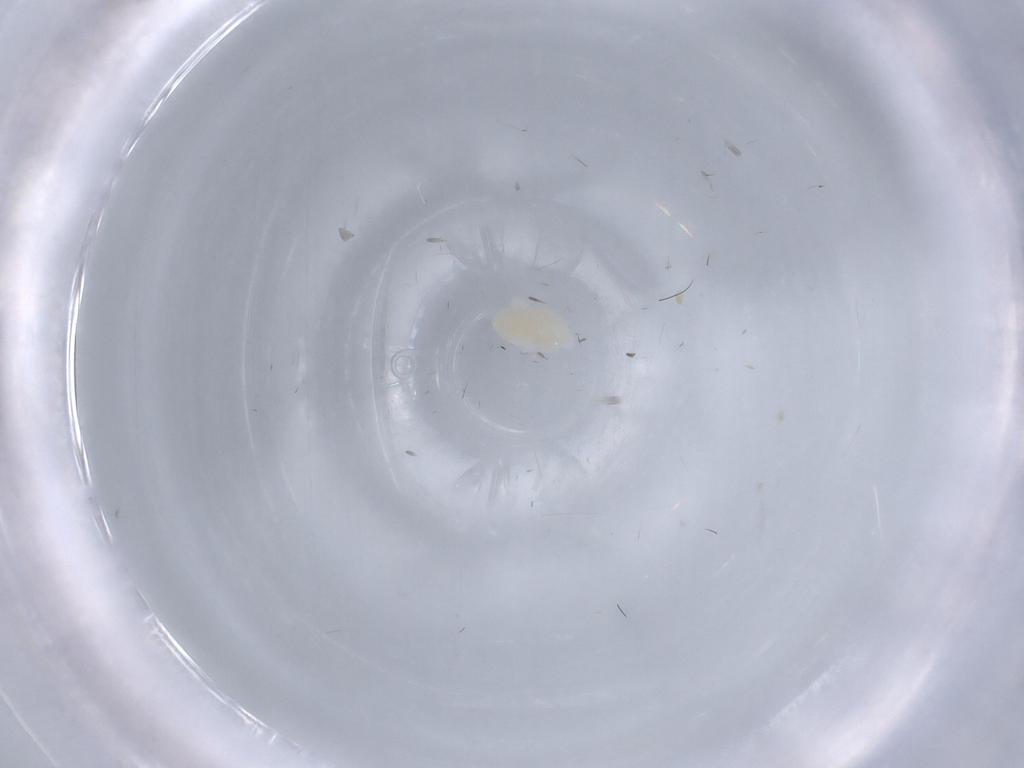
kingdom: Animalia
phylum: Arthropoda
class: Arachnida
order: Trombidiformes
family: Eupodidae
